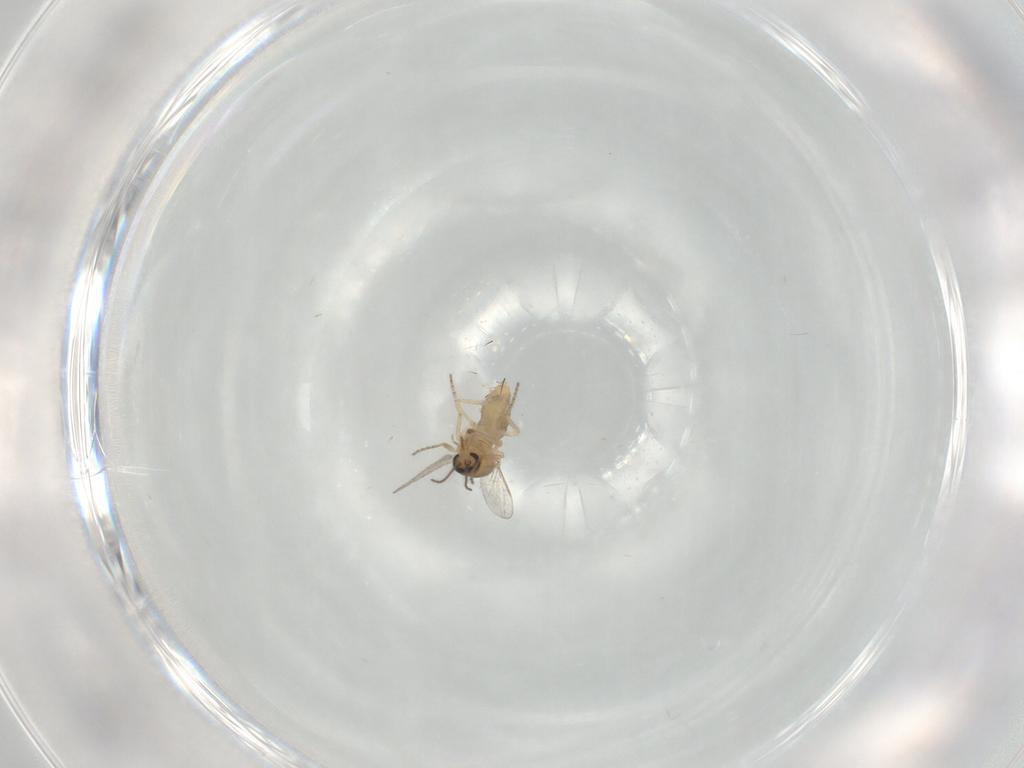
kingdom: Animalia
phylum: Arthropoda
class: Insecta
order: Diptera
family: Ceratopogonidae
